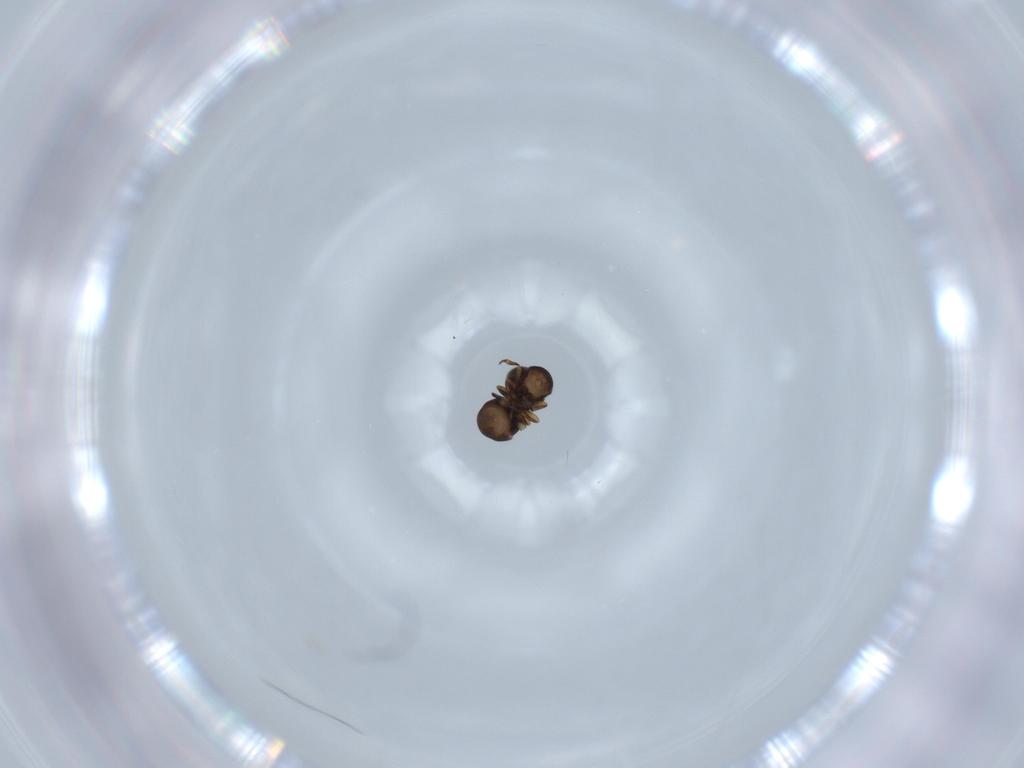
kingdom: Animalia
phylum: Arthropoda
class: Insecta
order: Hymenoptera
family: Scelionidae
